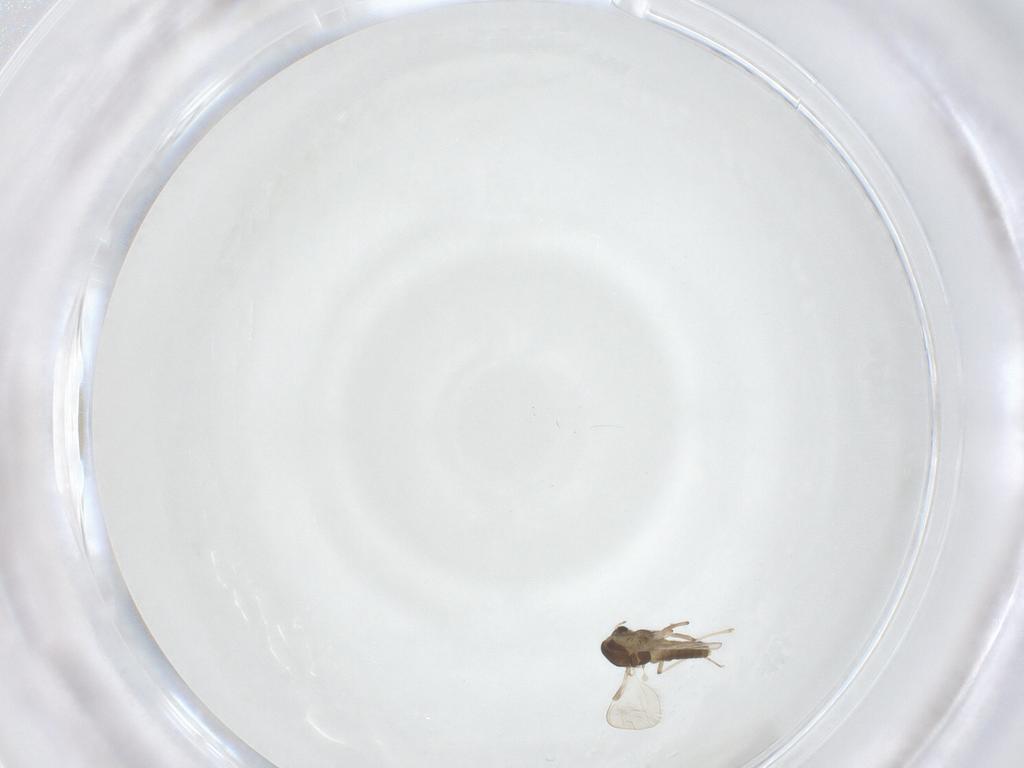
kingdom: Animalia
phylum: Arthropoda
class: Insecta
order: Diptera
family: Chironomidae
